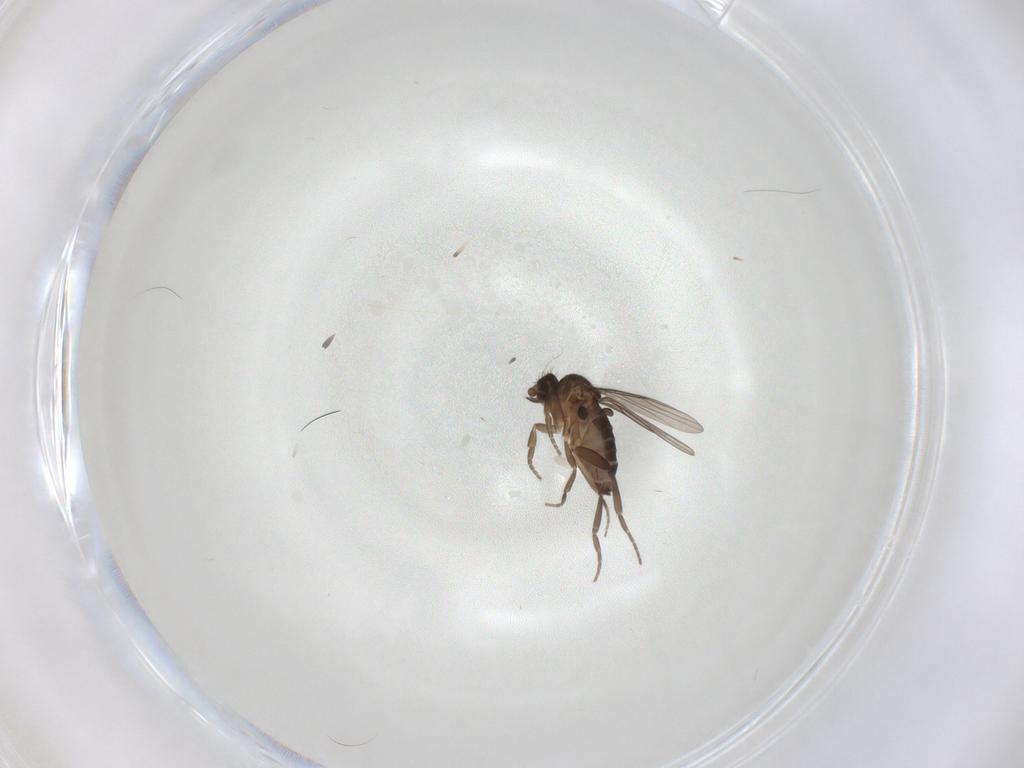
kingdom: Animalia
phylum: Arthropoda
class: Insecta
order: Diptera
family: Phoridae
